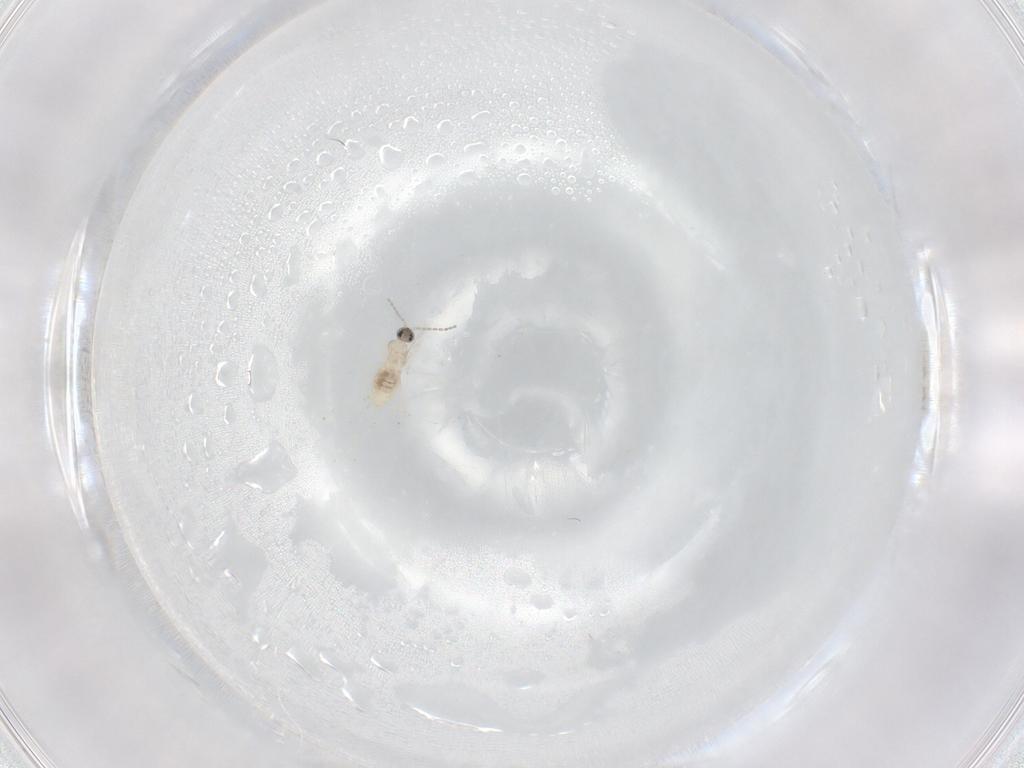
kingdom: Animalia
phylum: Arthropoda
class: Insecta
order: Diptera
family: Cecidomyiidae
